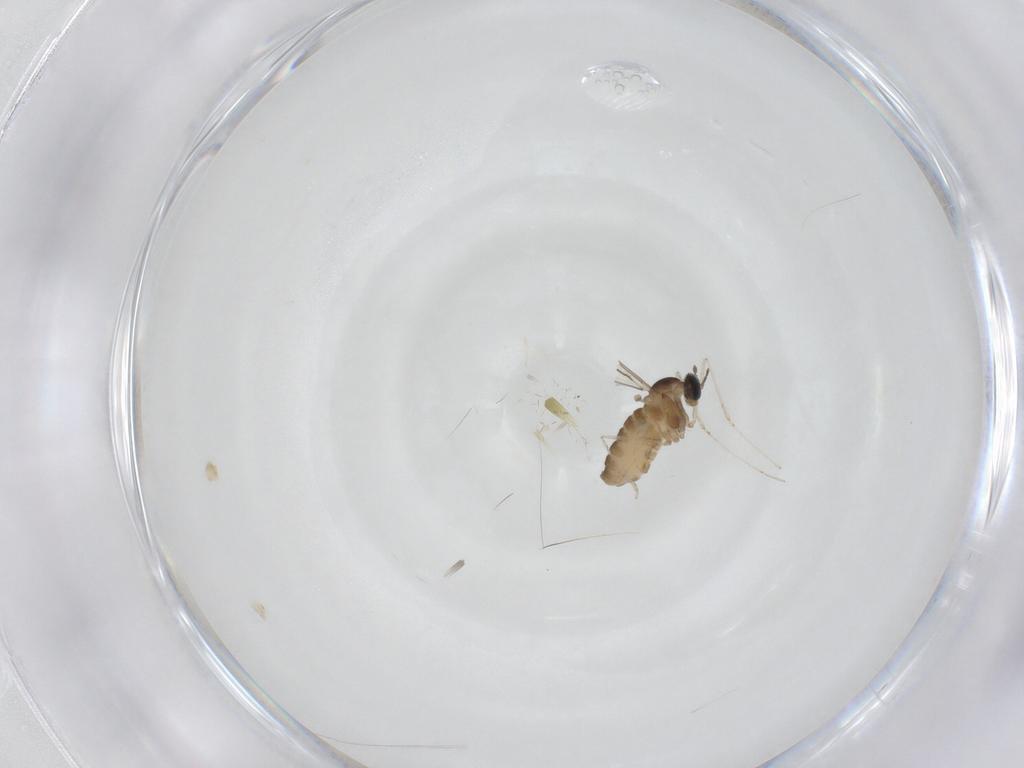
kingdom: Animalia
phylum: Arthropoda
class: Insecta
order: Diptera
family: Cecidomyiidae
